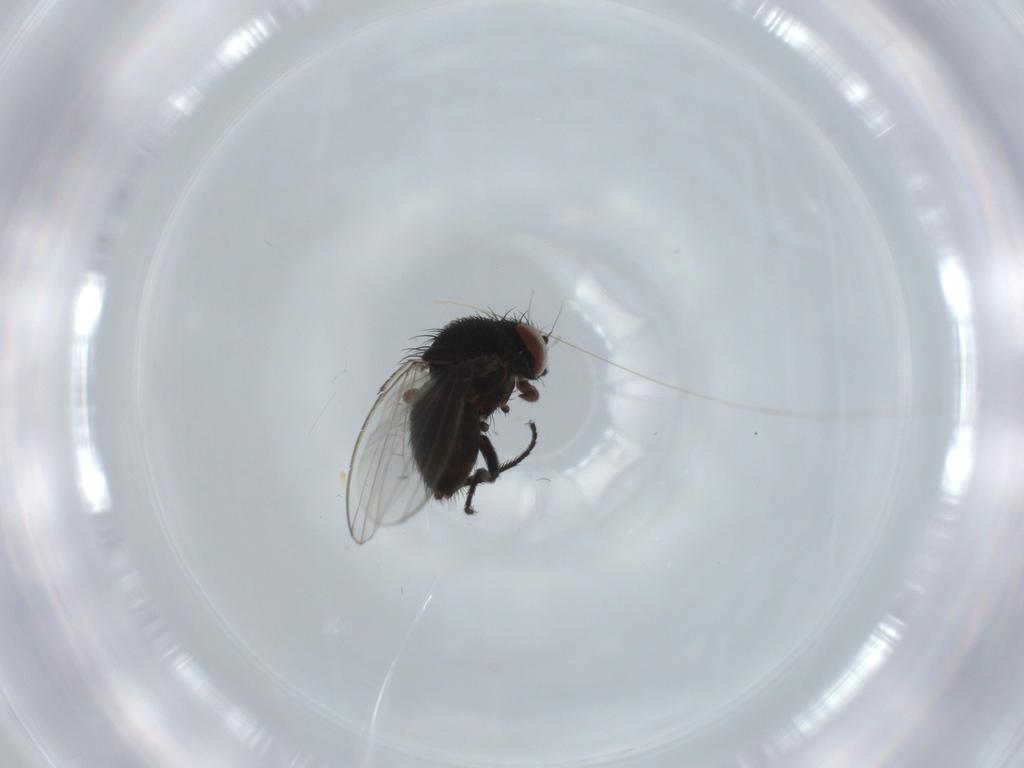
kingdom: Animalia
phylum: Arthropoda
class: Insecta
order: Diptera
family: Milichiidae
